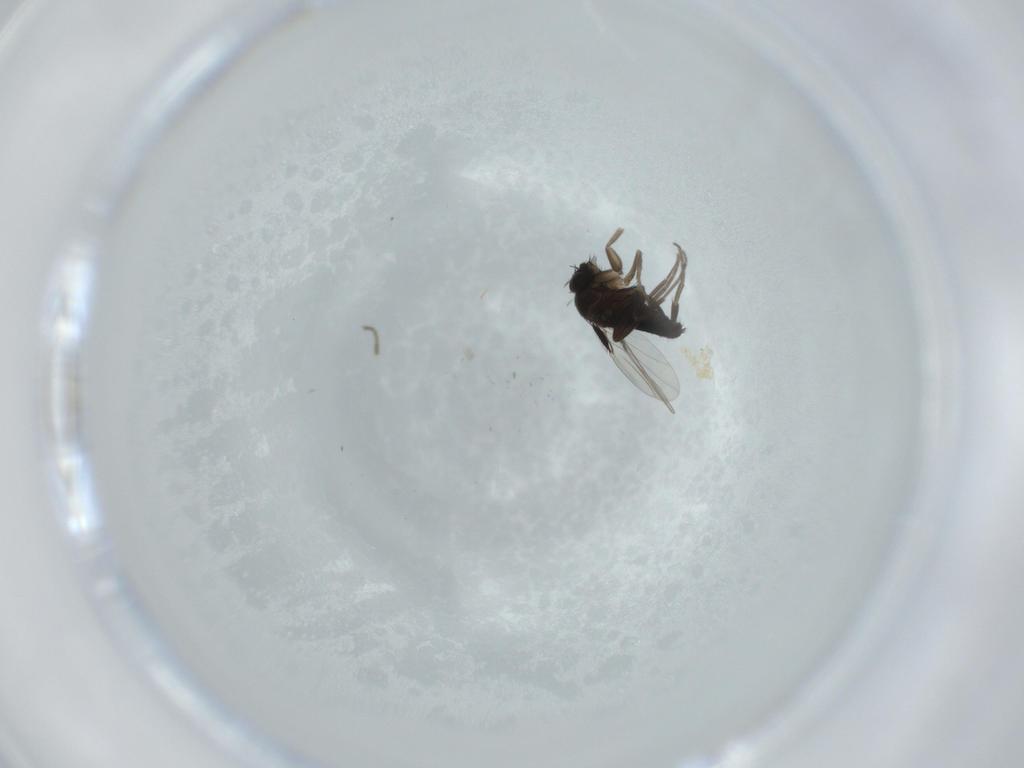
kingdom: Animalia
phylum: Arthropoda
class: Insecta
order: Diptera
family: Phoridae
